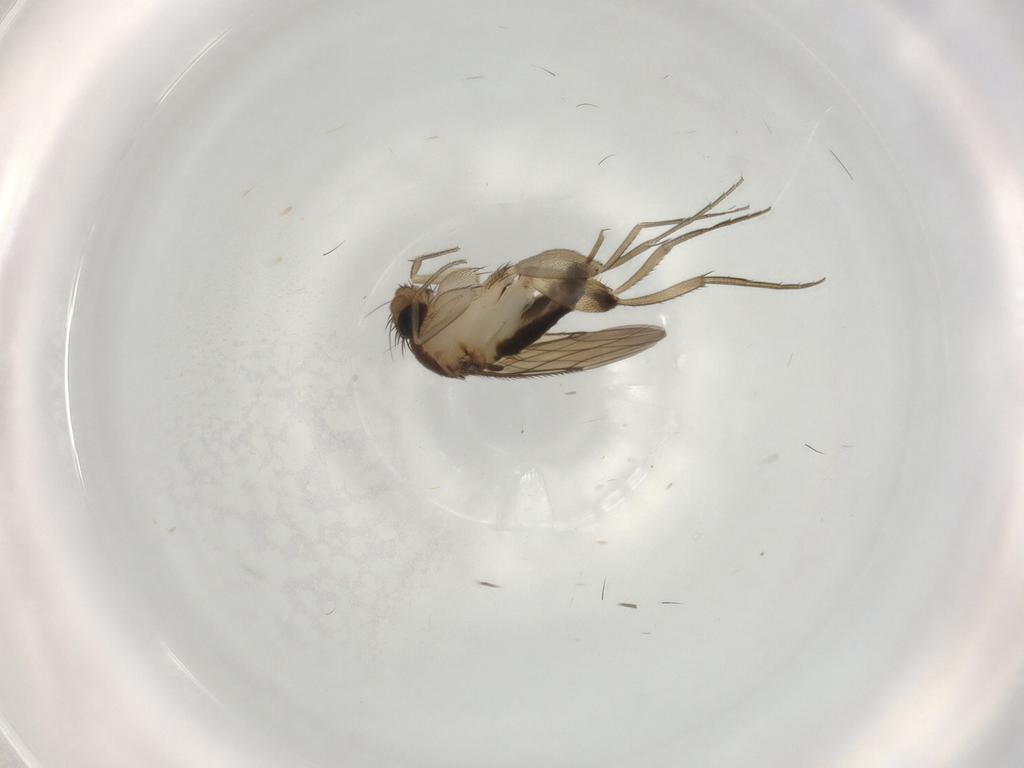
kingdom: Animalia
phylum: Arthropoda
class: Insecta
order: Diptera
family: Phoridae
